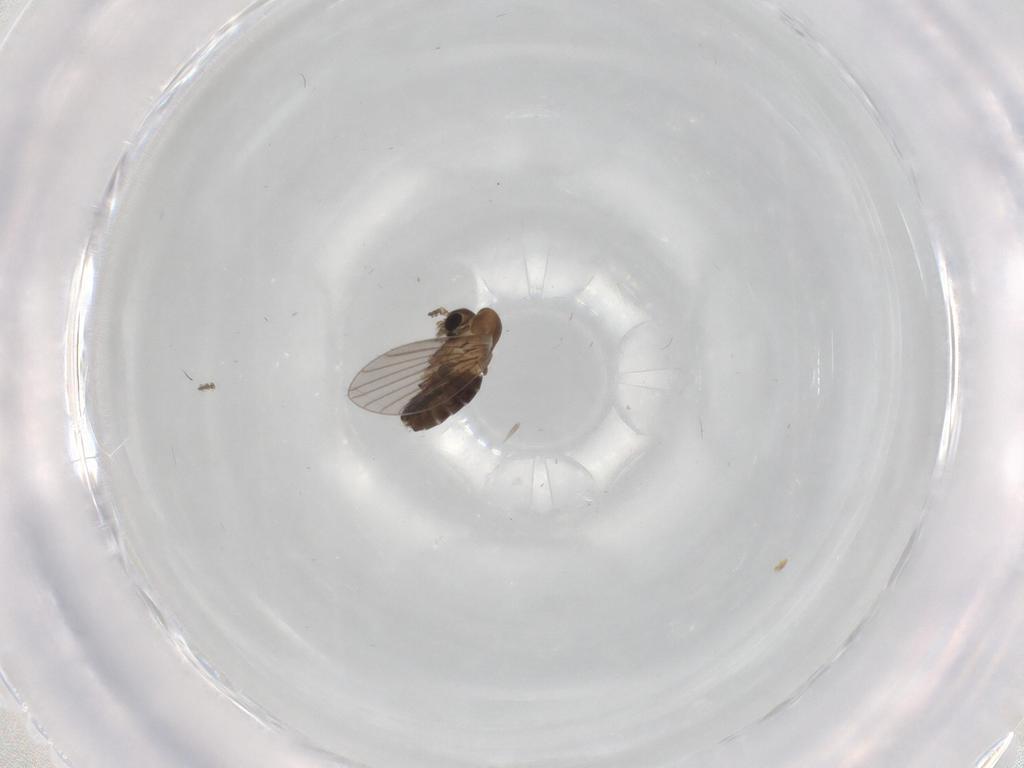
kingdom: Animalia
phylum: Arthropoda
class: Insecta
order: Diptera
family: Psychodidae
